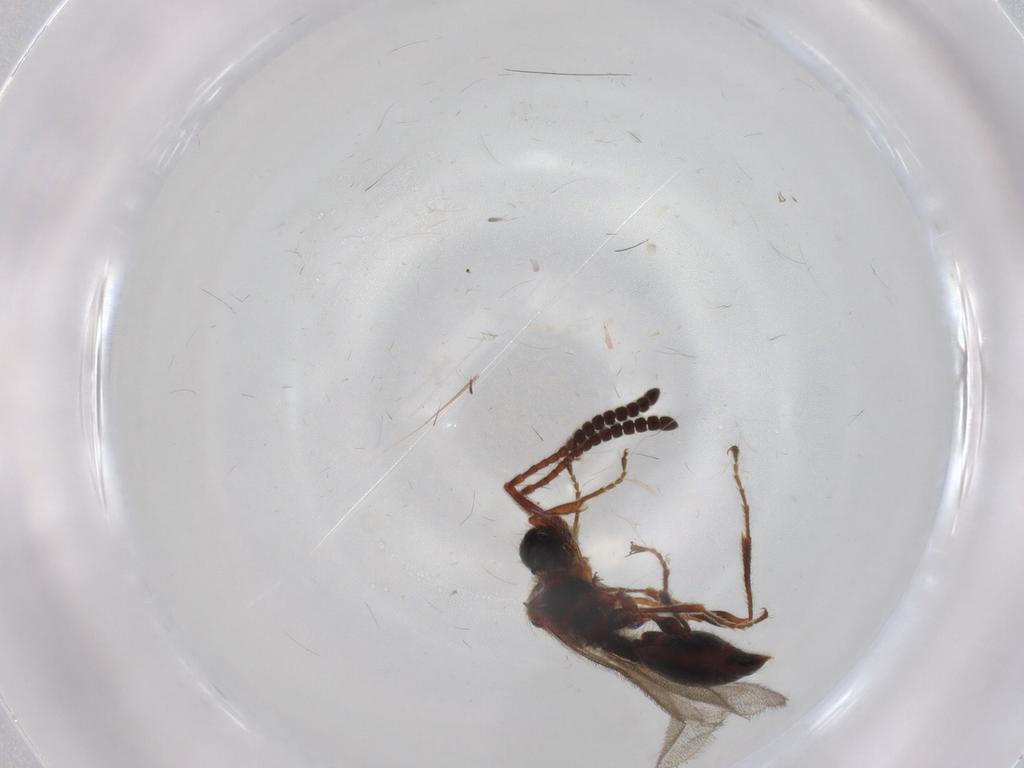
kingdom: Animalia
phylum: Arthropoda
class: Insecta
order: Hymenoptera
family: Diapriidae
